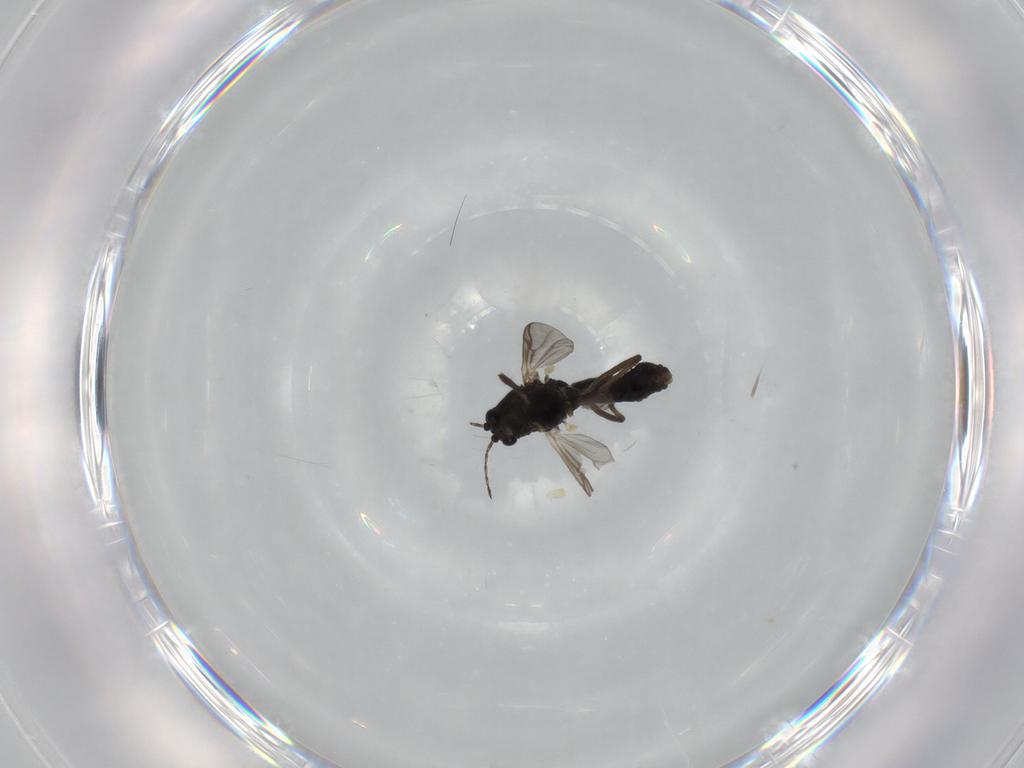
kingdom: Animalia
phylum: Arthropoda
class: Insecta
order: Diptera
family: Chironomidae
